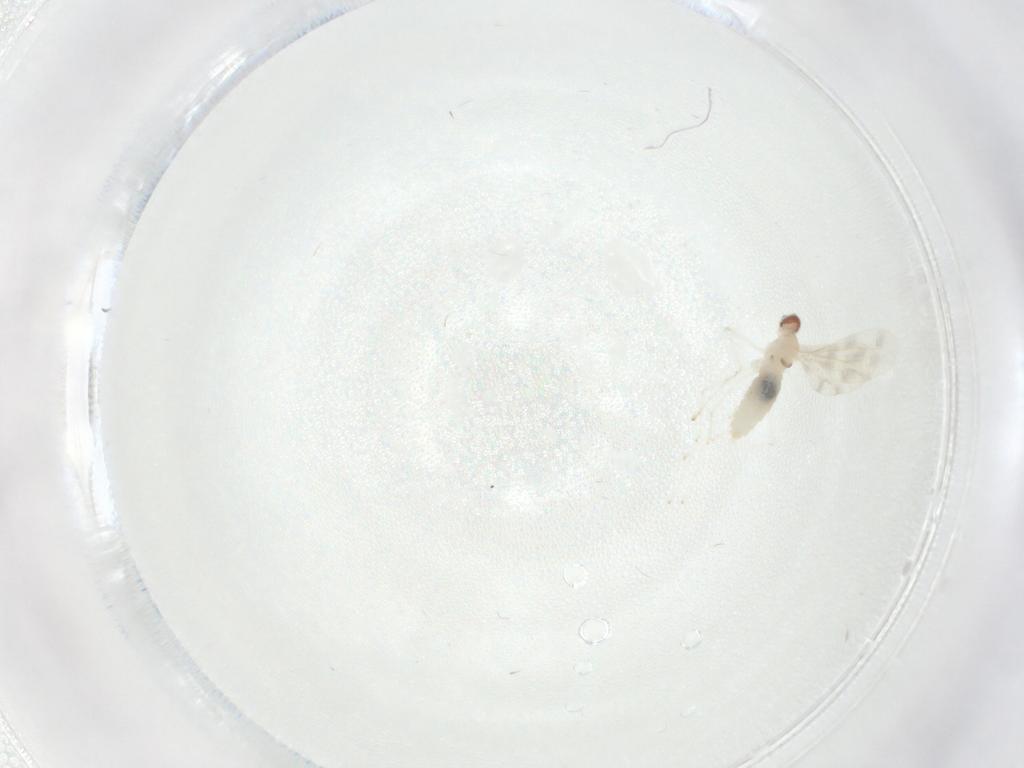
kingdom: Animalia
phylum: Arthropoda
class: Insecta
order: Diptera
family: Cecidomyiidae
